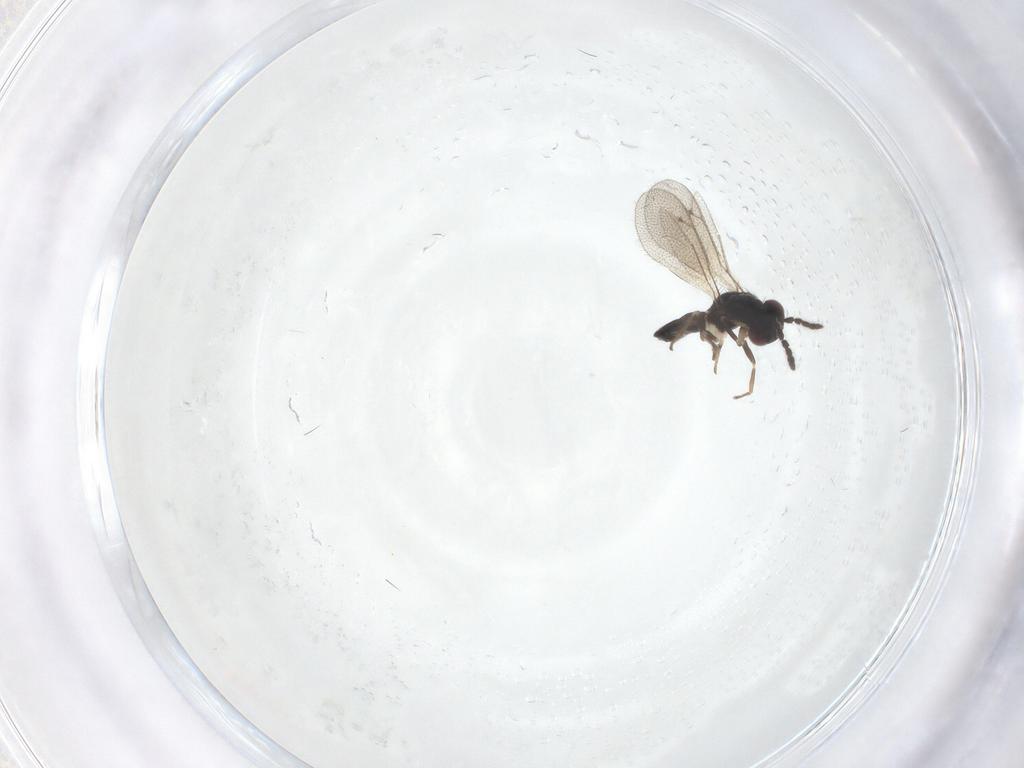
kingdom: Animalia
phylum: Arthropoda
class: Insecta
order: Hymenoptera
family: Eulophidae
